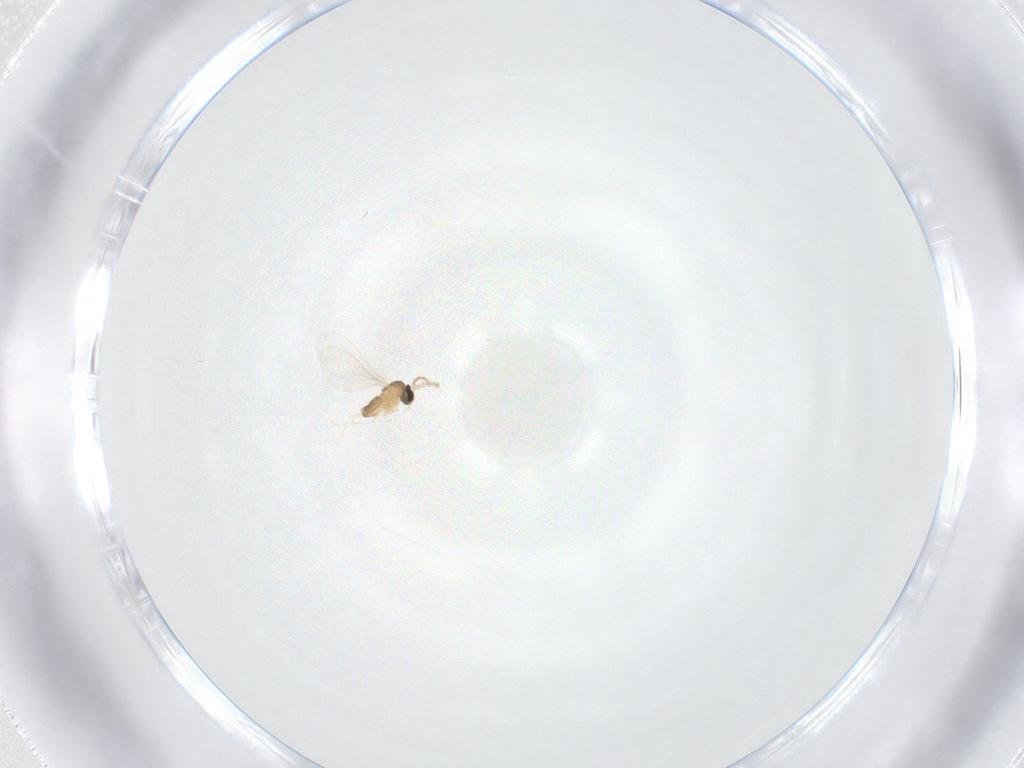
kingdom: Animalia
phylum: Arthropoda
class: Insecta
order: Diptera
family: Cecidomyiidae
